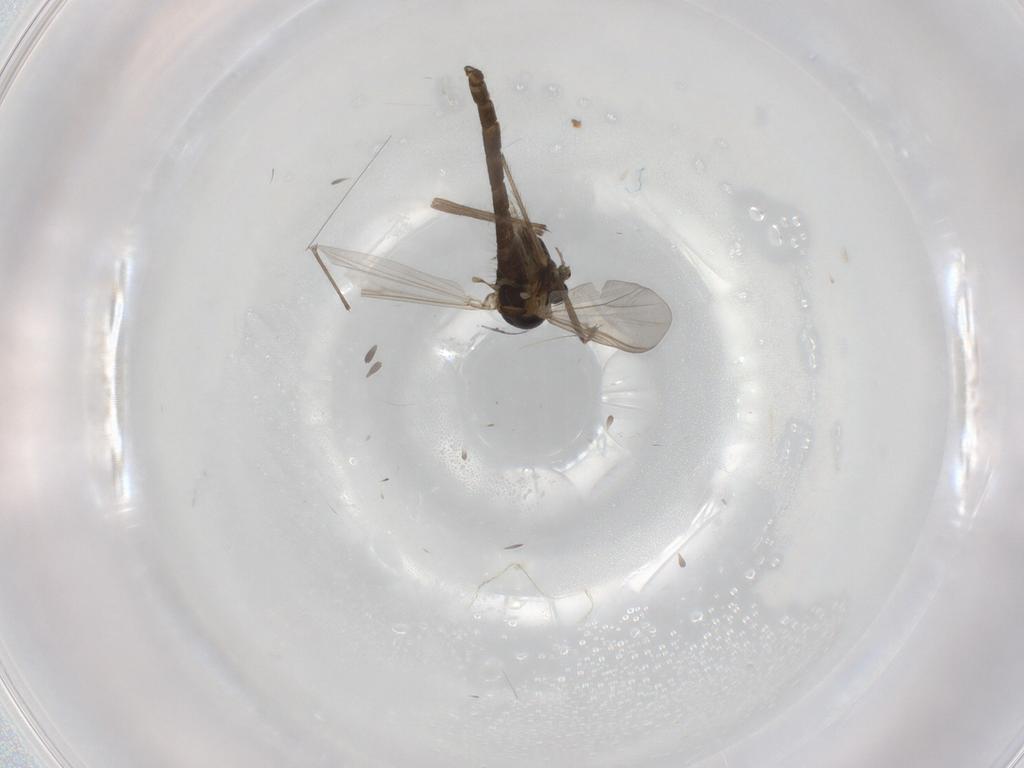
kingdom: Animalia
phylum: Arthropoda
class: Insecta
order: Diptera
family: Chironomidae
